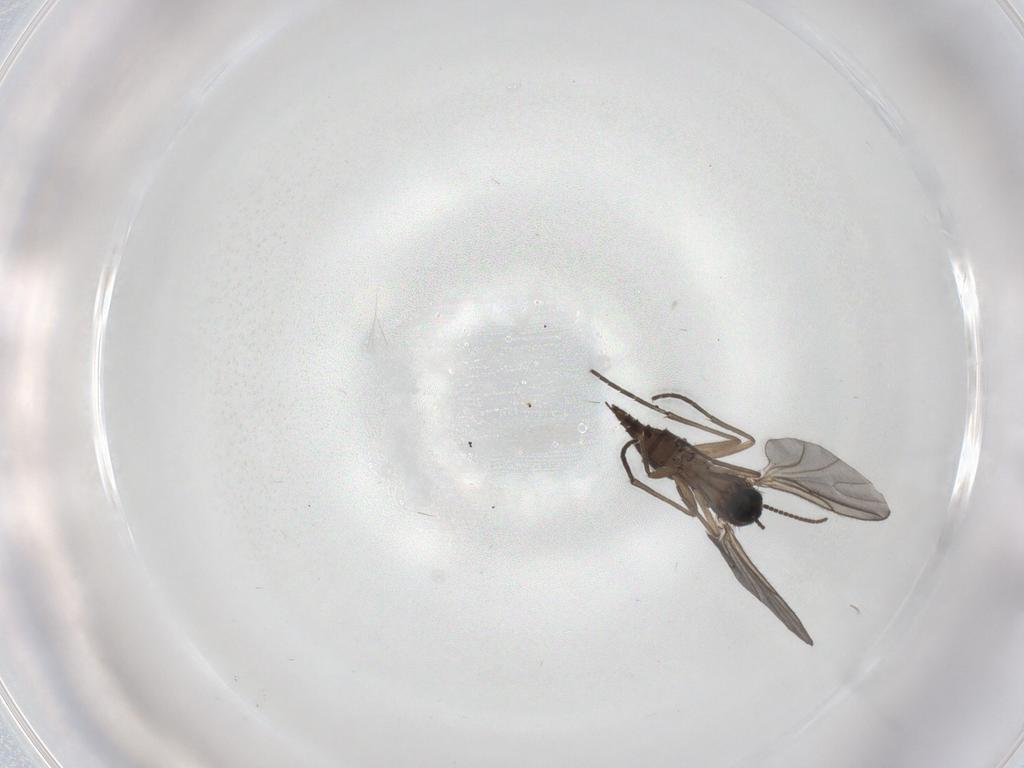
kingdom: Animalia
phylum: Arthropoda
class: Insecta
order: Diptera
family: Sciaridae
